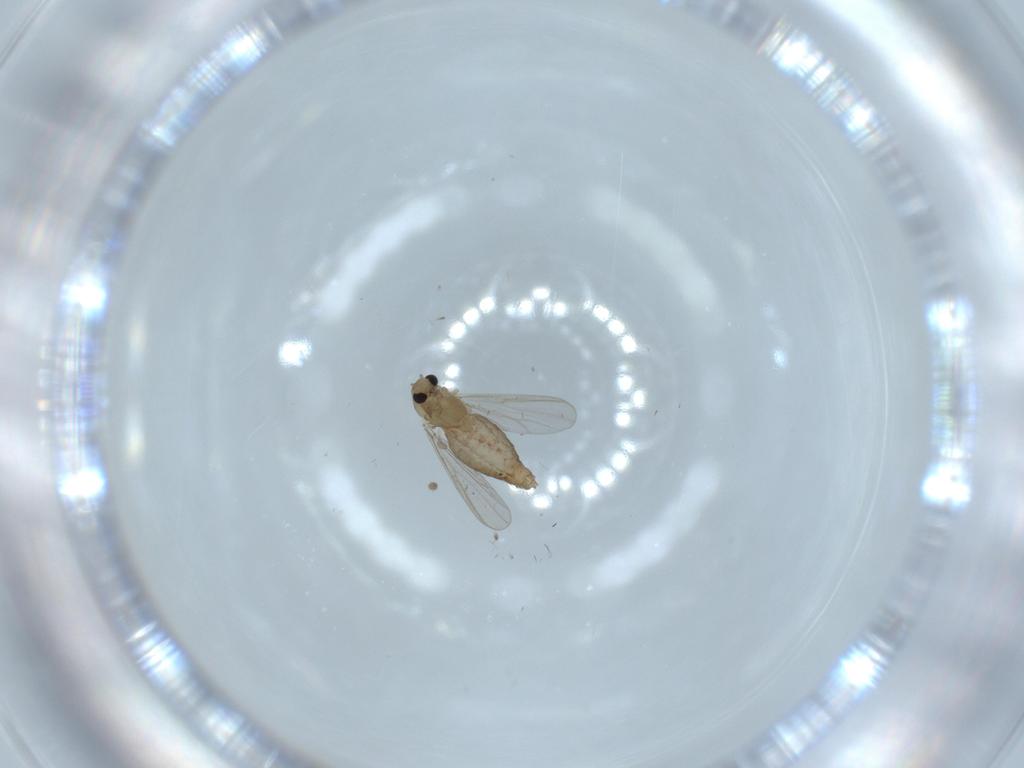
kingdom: Animalia
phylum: Arthropoda
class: Insecta
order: Diptera
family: Chironomidae
